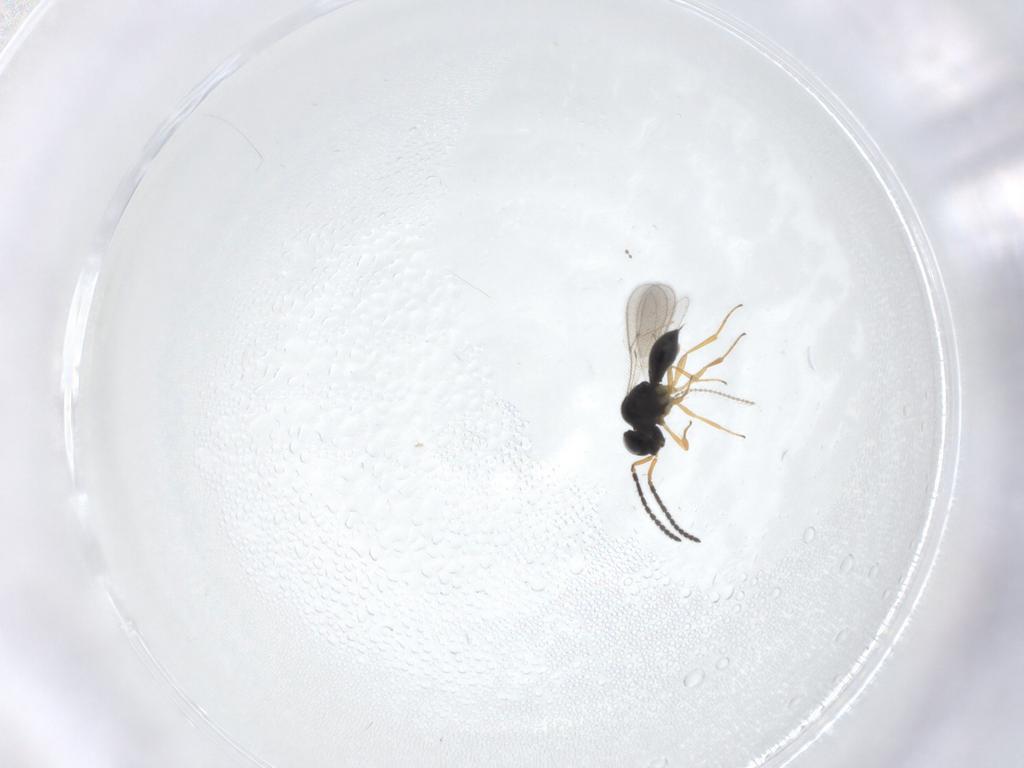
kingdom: Animalia
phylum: Arthropoda
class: Insecta
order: Hymenoptera
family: Scelionidae
